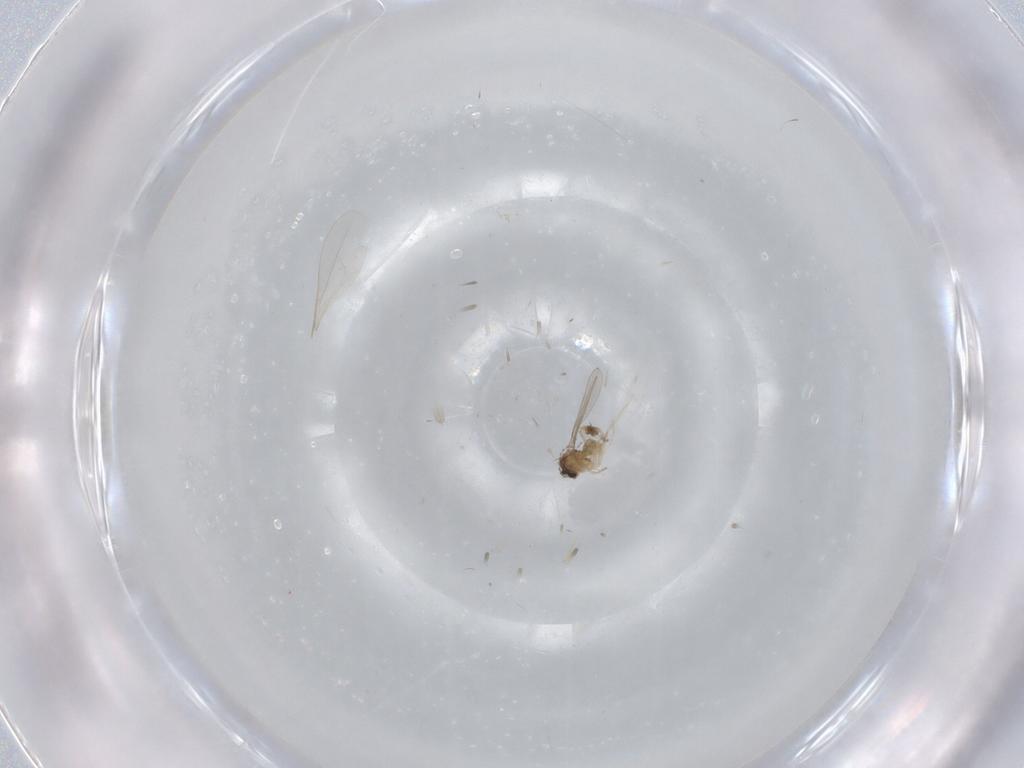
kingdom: Animalia
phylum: Arthropoda
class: Insecta
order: Diptera
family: Cecidomyiidae
